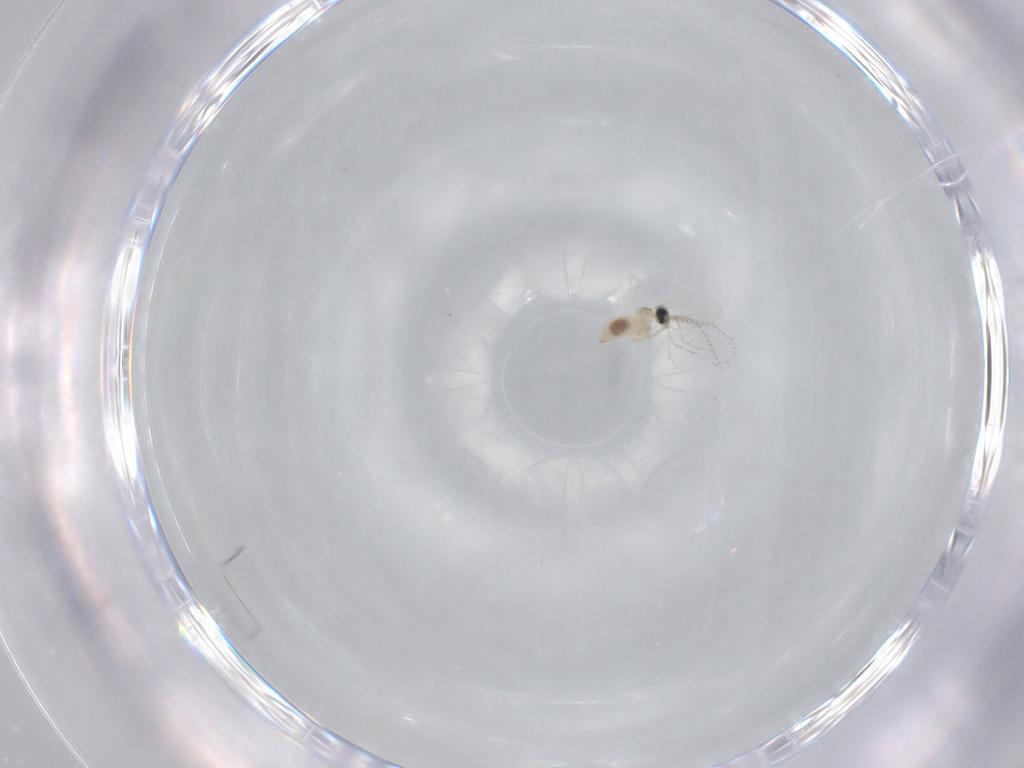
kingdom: Animalia
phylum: Arthropoda
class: Insecta
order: Diptera
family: Cecidomyiidae
